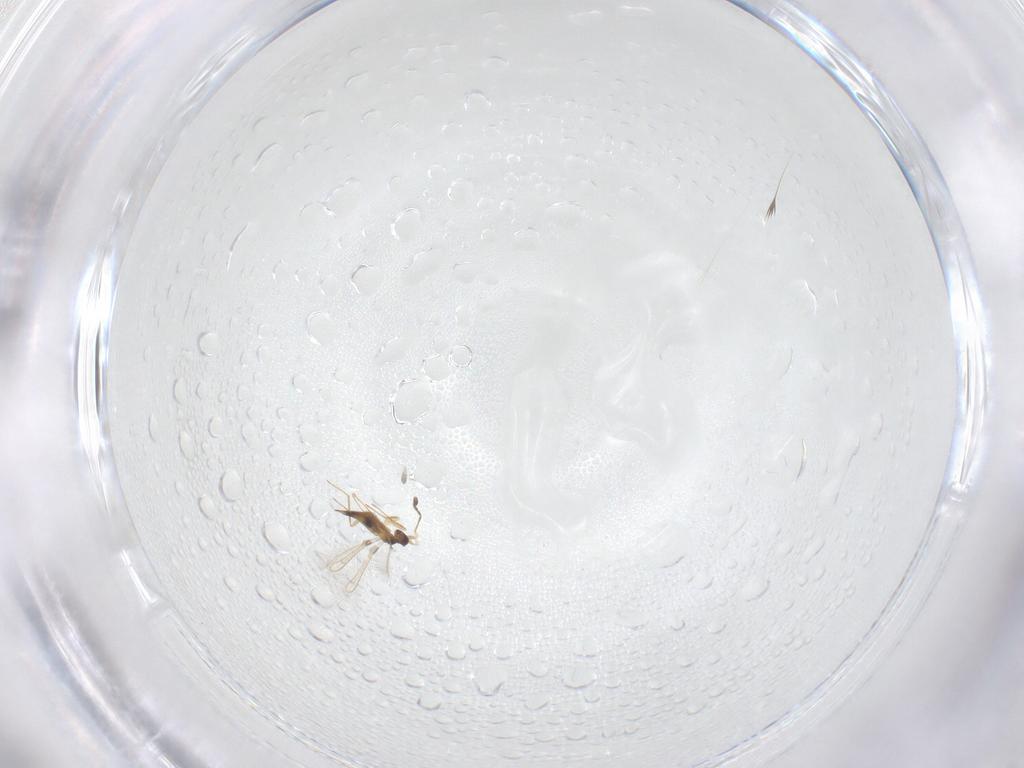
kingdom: Animalia
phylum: Arthropoda
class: Insecta
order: Hymenoptera
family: Mymaridae
